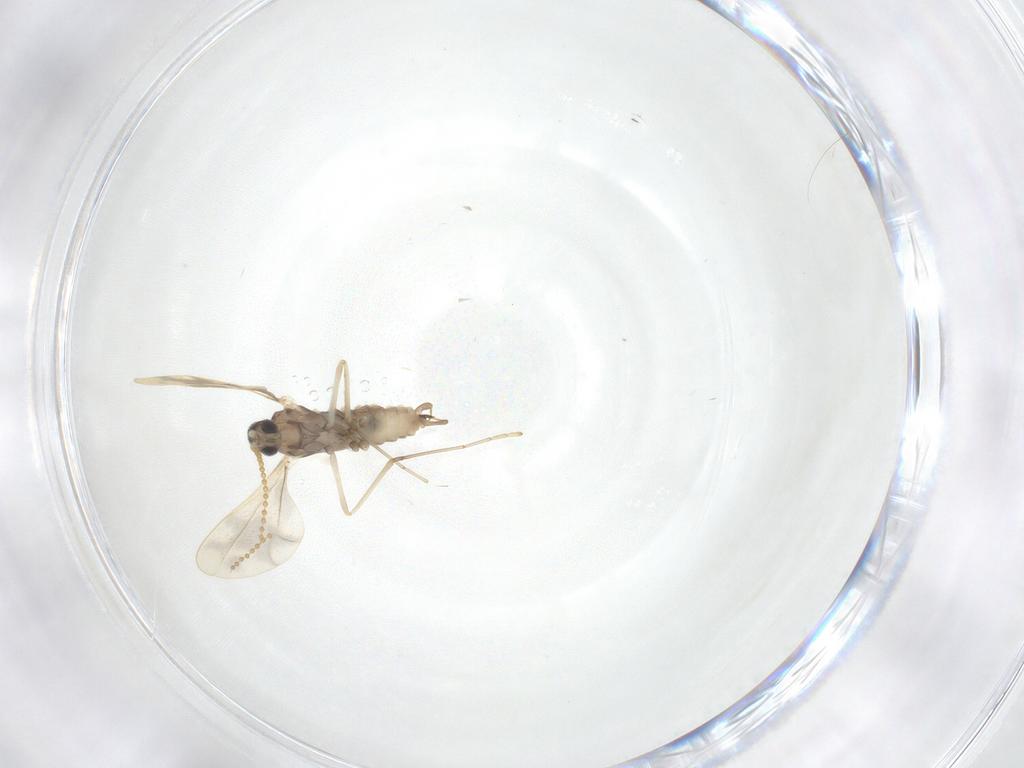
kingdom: Animalia
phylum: Arthropoda
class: Insecta
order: Diptera
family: Cecidomyiidae
